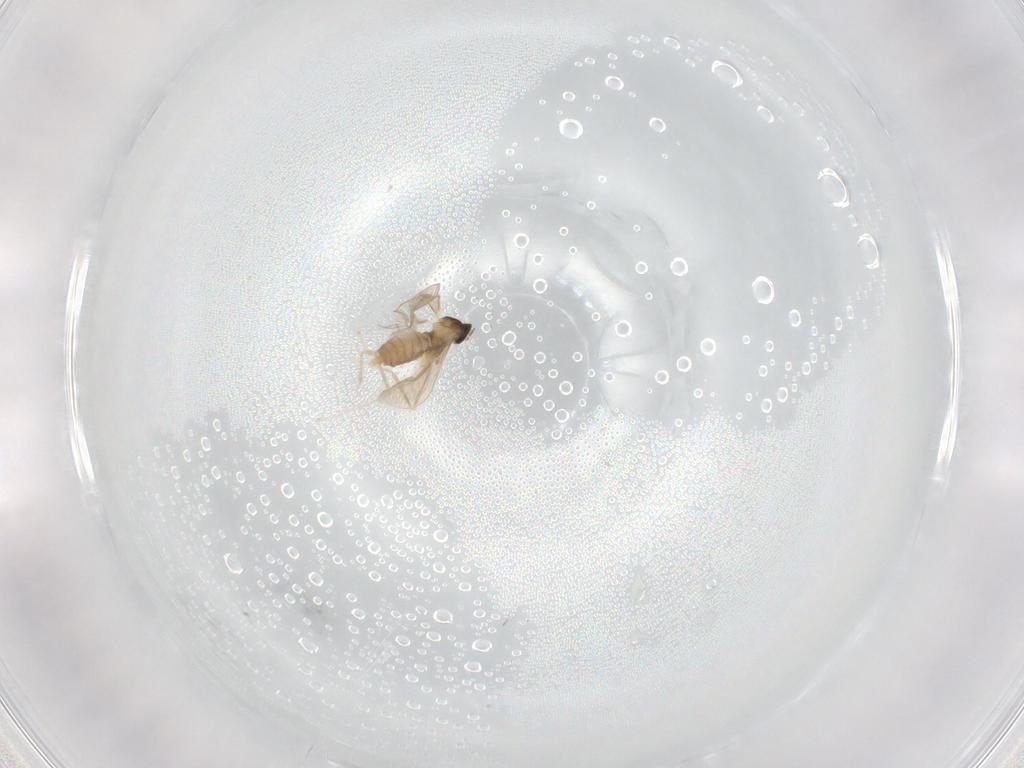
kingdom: Animalia
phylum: Arthropoda
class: Insecta
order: Diptera
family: Cecidomyiidae
